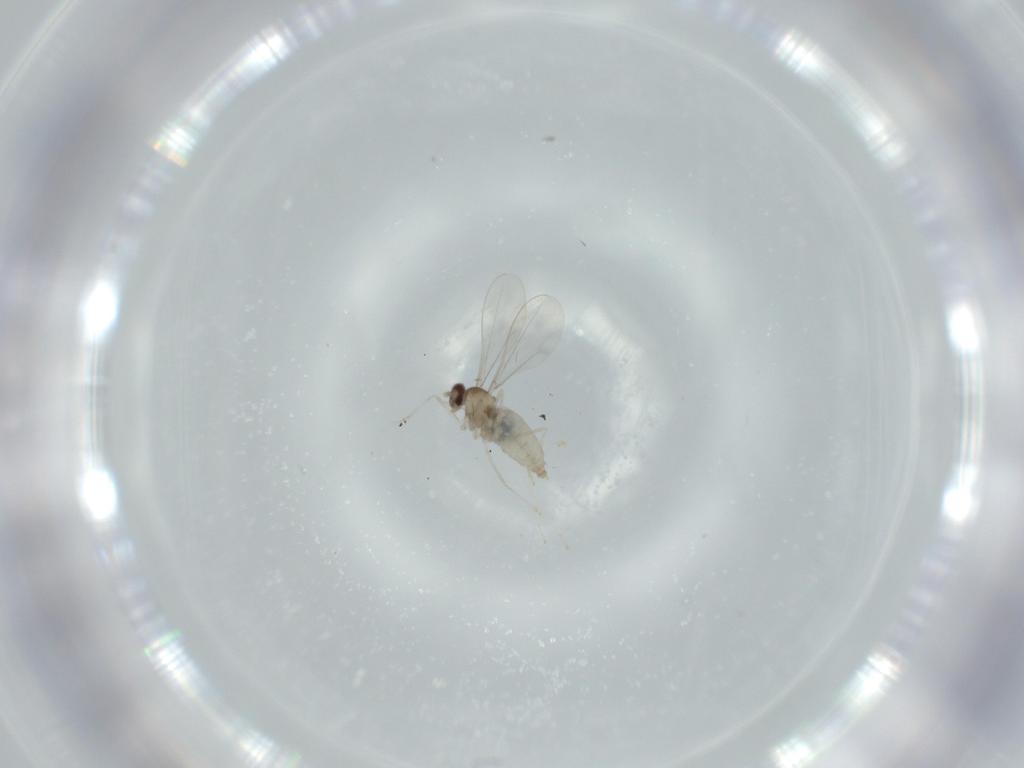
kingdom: Animalia
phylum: Arthropoda
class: Insecta
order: Diptera
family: Cecidomyiidae
